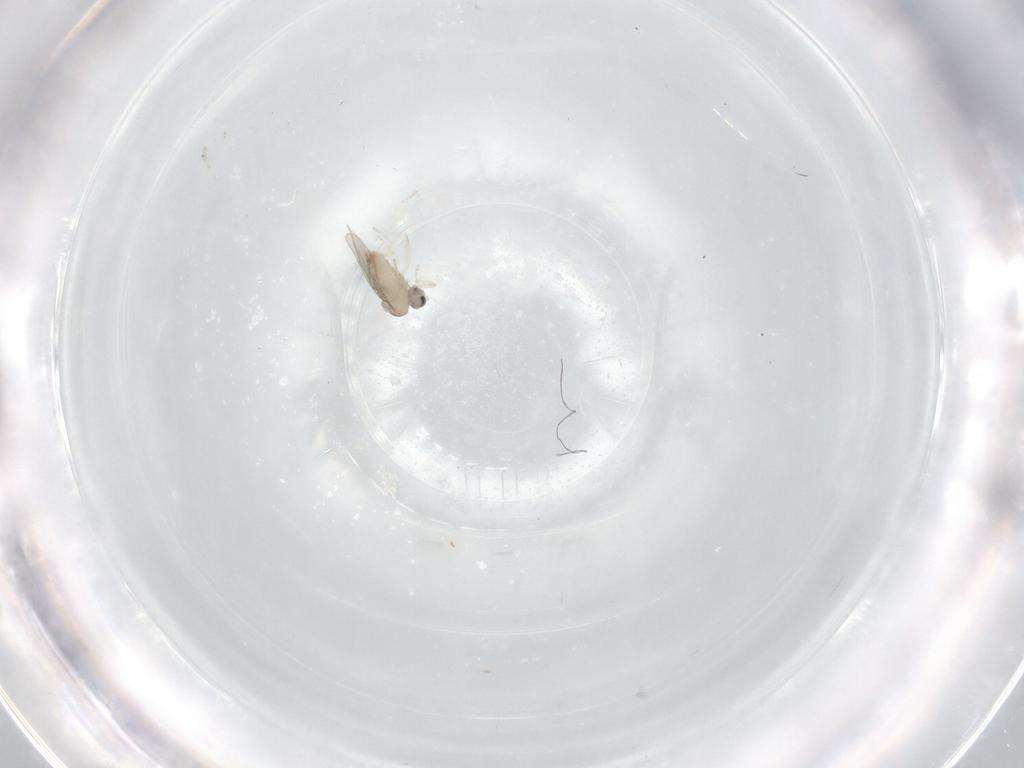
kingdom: Animalia
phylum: Arthropoda
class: Insecta
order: Diptera
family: Cecidomyiidae
